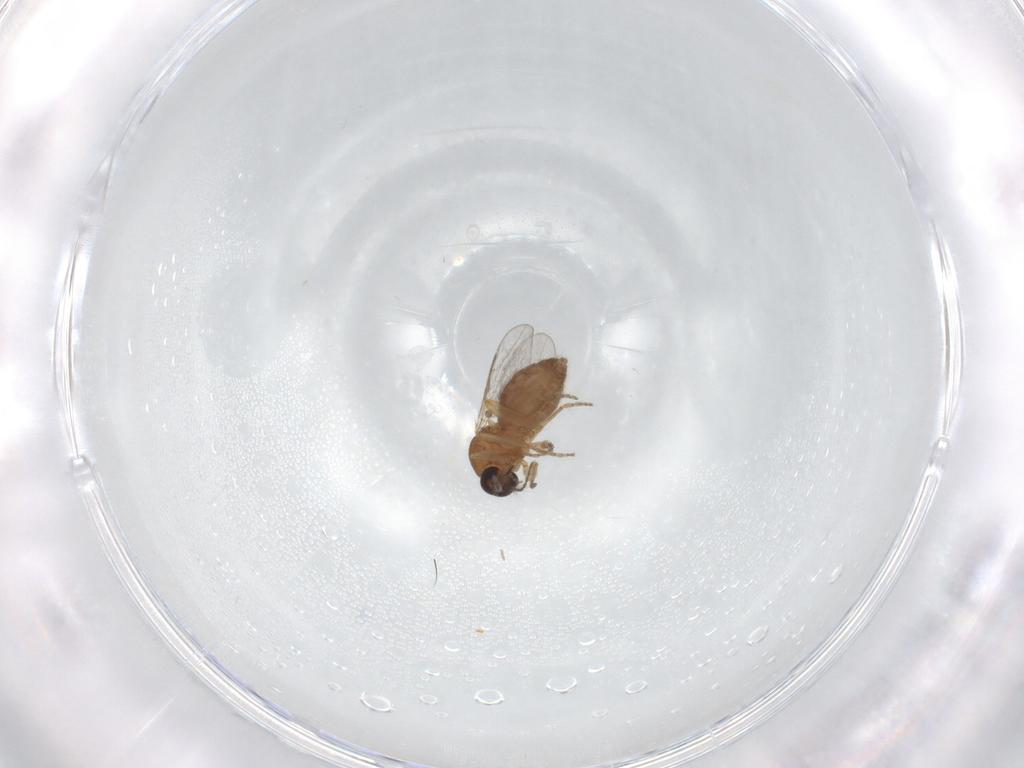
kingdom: Animalia
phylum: Arthropoda
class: Insecta
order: Diptera
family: Ceratopogonidae
